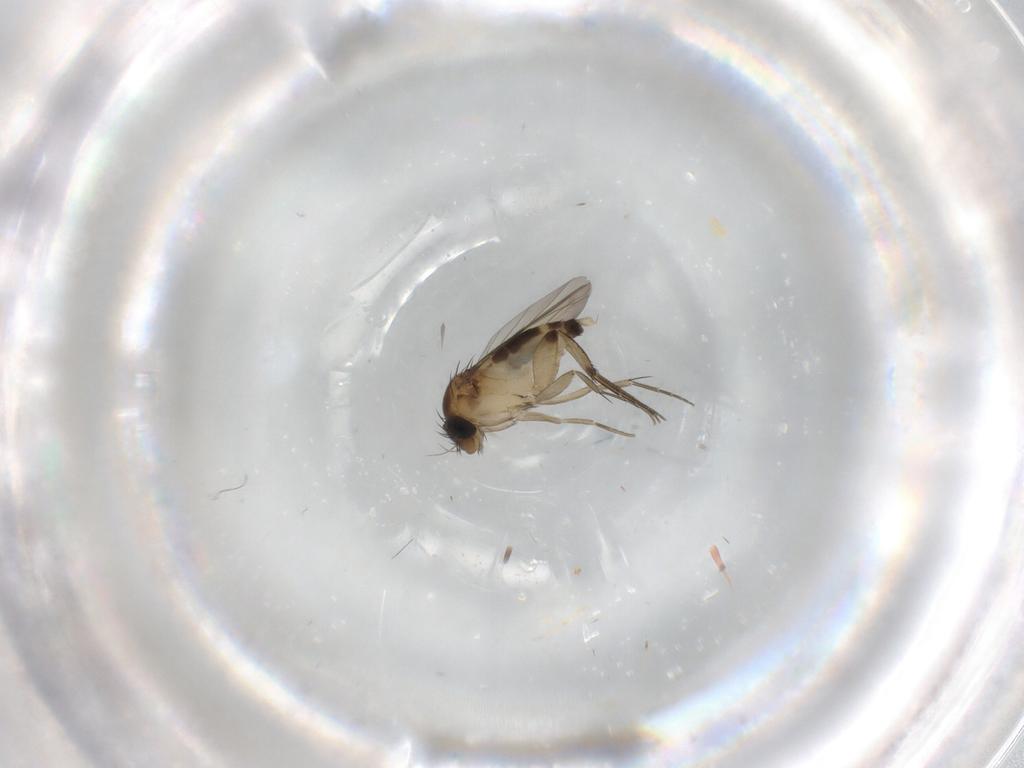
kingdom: Animalia
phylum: Arthropoda
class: Insecta
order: Diptera
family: Phoridae
